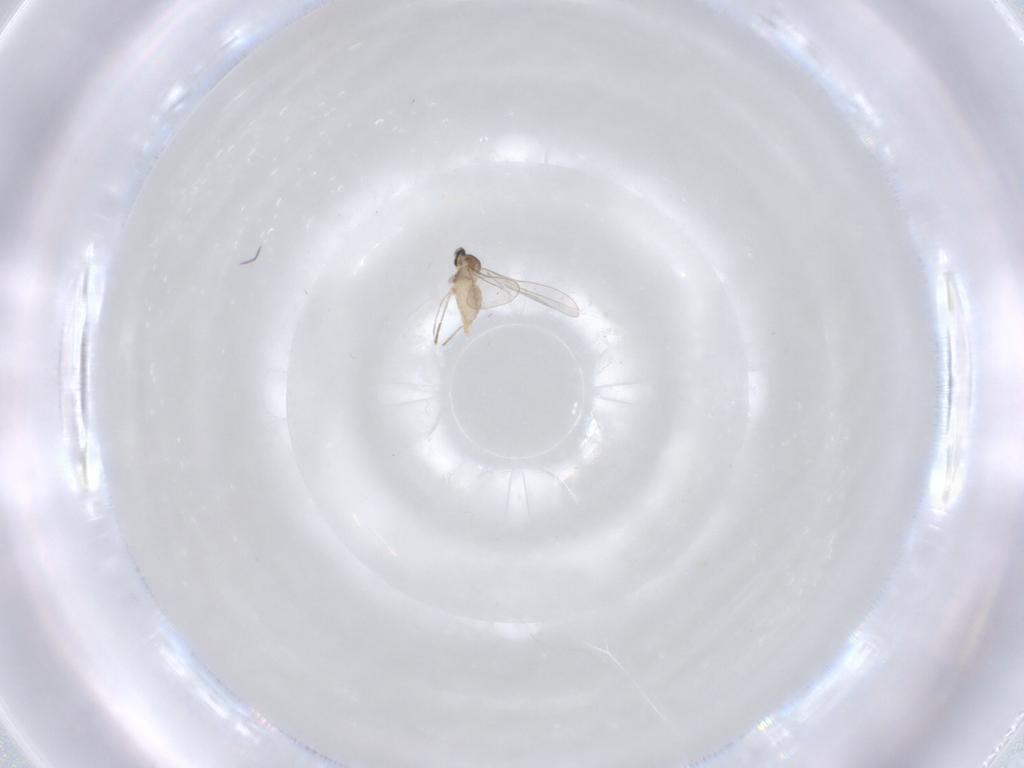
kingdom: Animalia
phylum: Arthropoda
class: Insecta
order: Diptera
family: Cecidomyiidae
